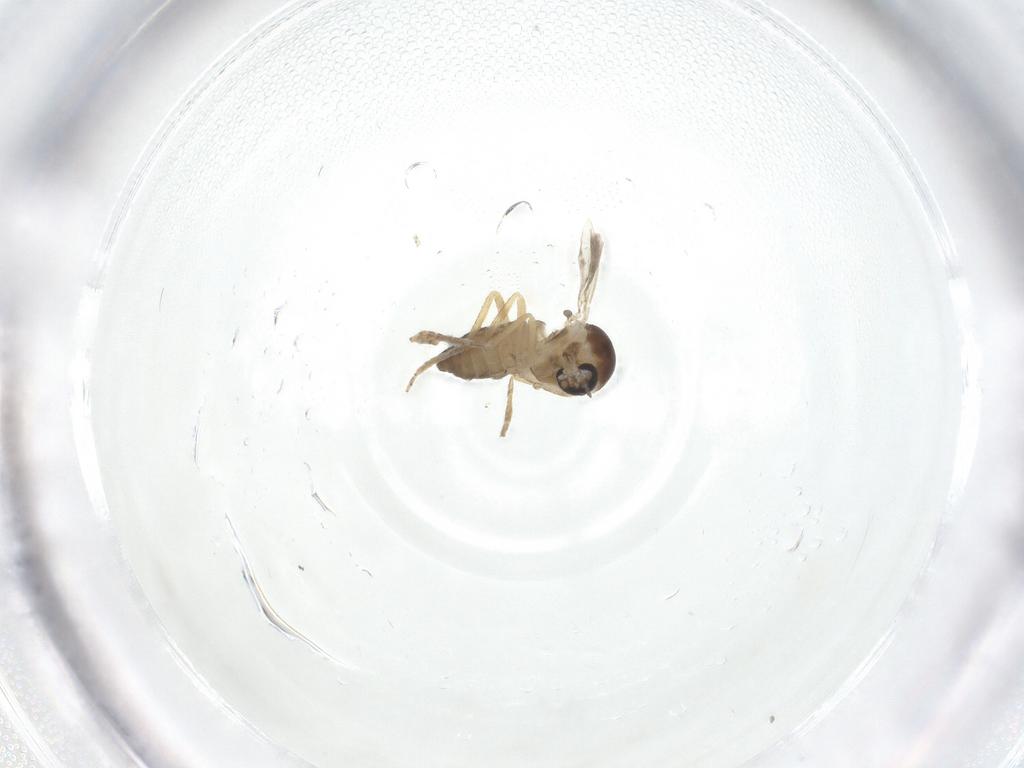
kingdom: Animalia
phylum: Arthropoda
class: Insecta
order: Diptera
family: Ceratopogonidae
